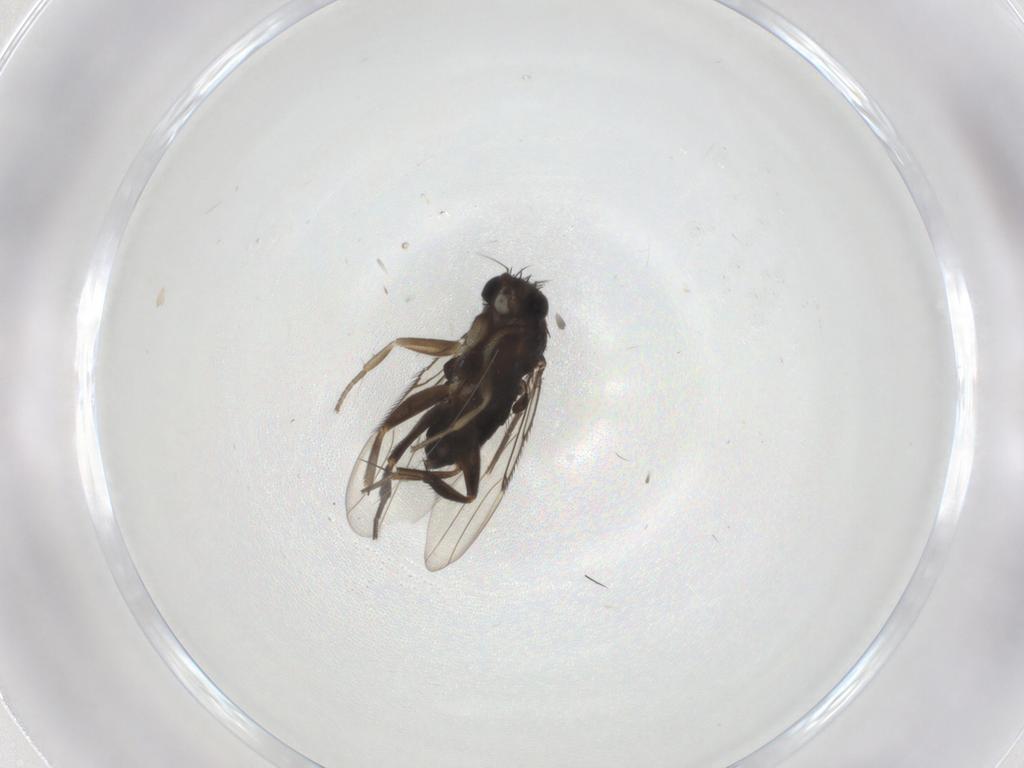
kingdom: Animalia
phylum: Arthropoda
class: Insecta
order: Diptera
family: Phoridae
